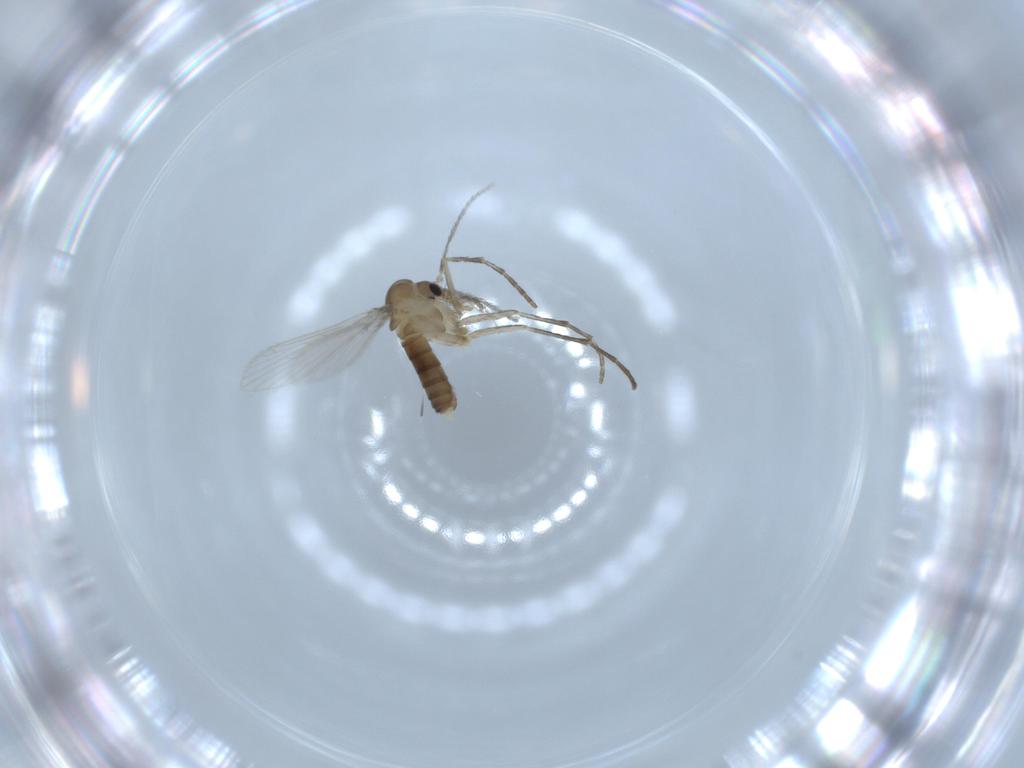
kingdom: Animalia
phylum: Arthropoda
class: Insecta
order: Diptera
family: Psychodidae
